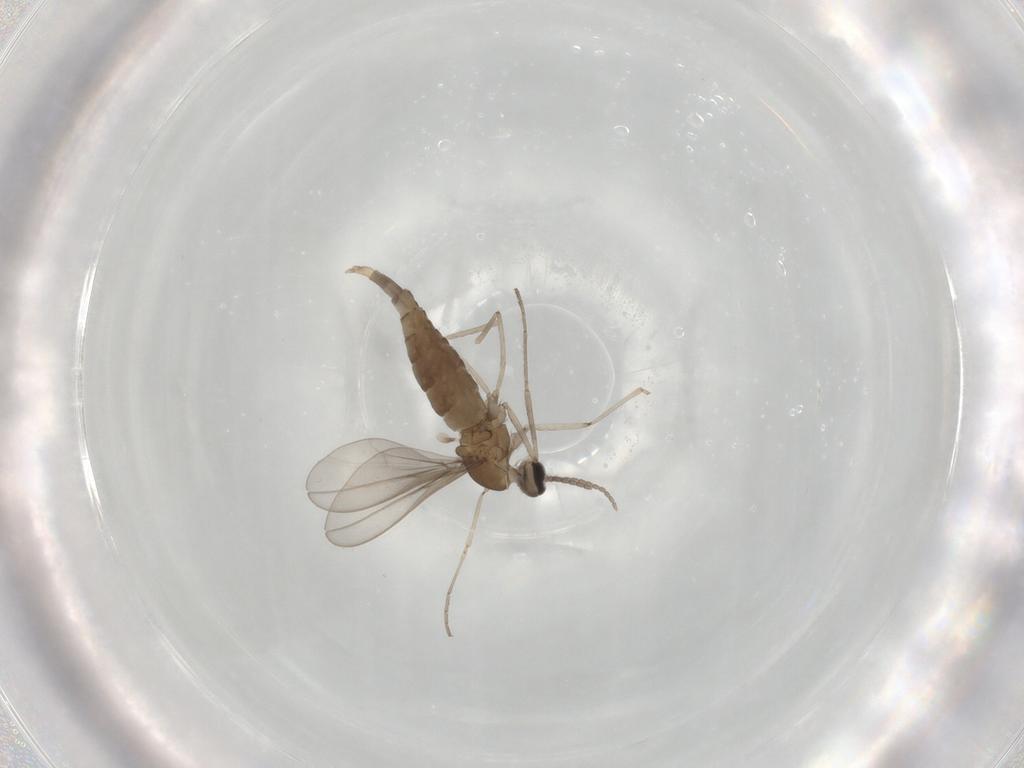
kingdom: Animalia
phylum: Arthropoda
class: Insecta
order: Diptera
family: Cecidomyiidae
